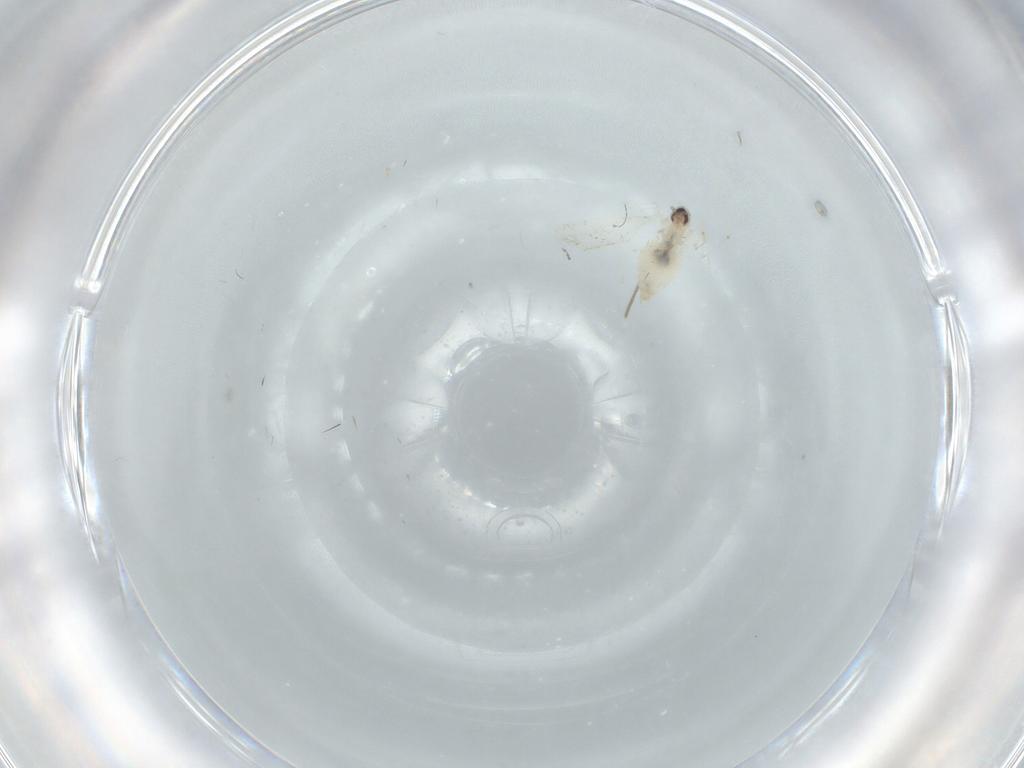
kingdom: Animalia
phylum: Arthropoda
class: Insecta
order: Diptera
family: Cecidomyiidae
